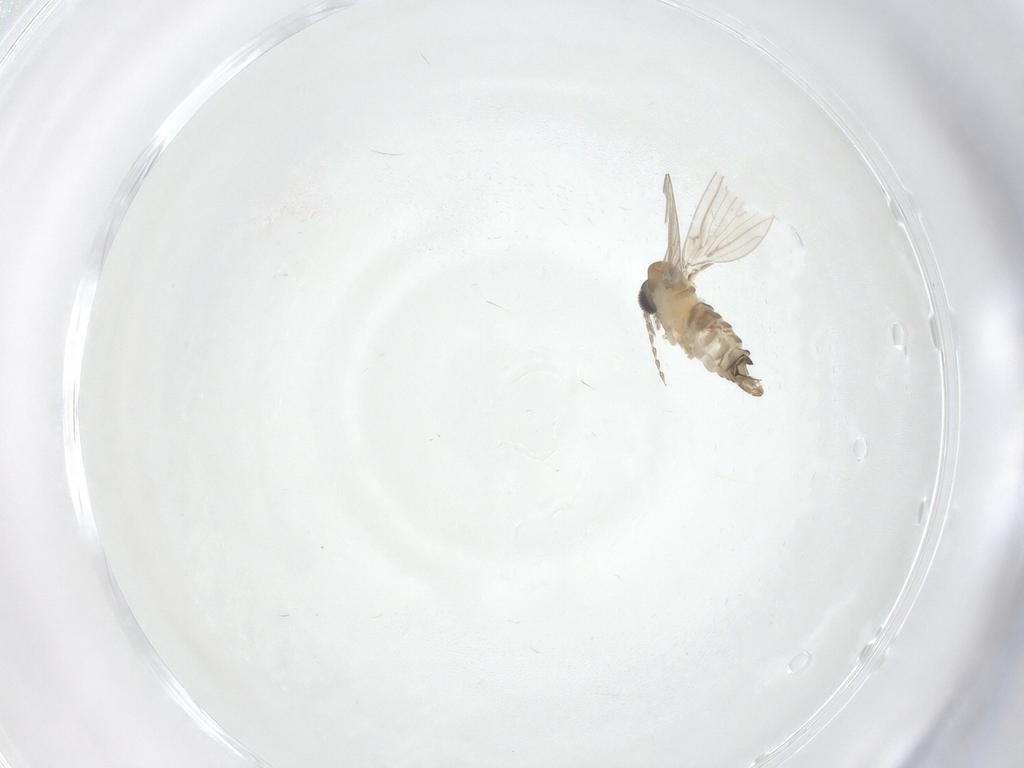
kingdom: Animalia
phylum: Arthropoda
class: Insecta
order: Diptera
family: Psychodidae
